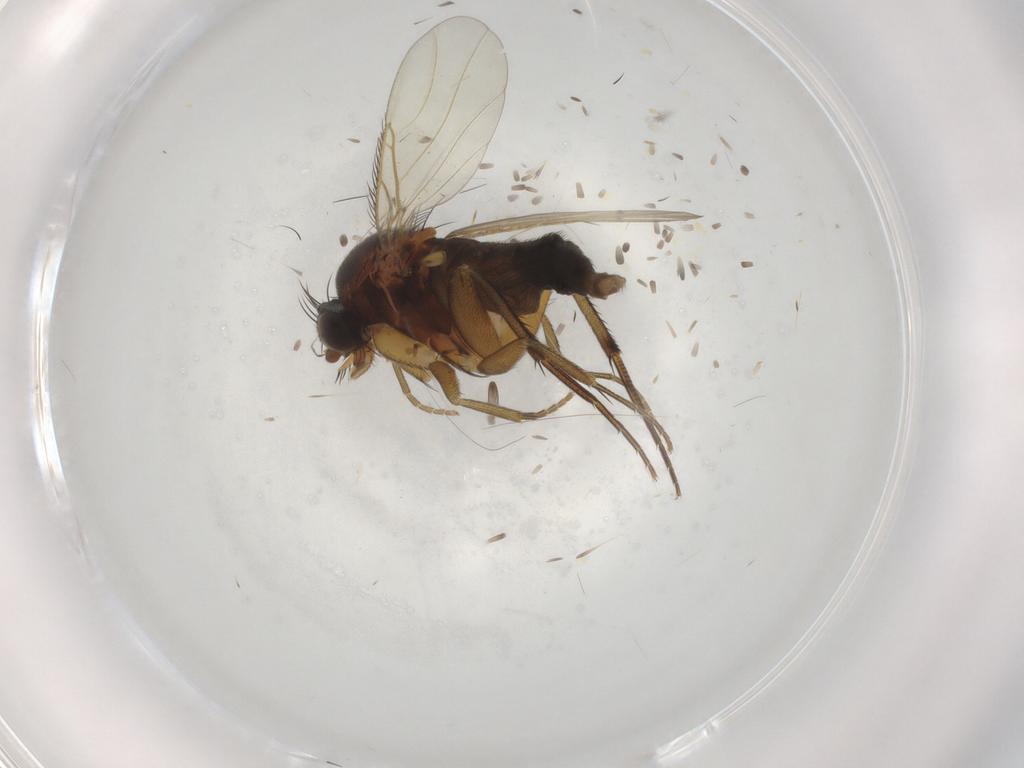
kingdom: Animalia
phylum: Arthropoda
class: Insecta
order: Diptera
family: Phoridae
